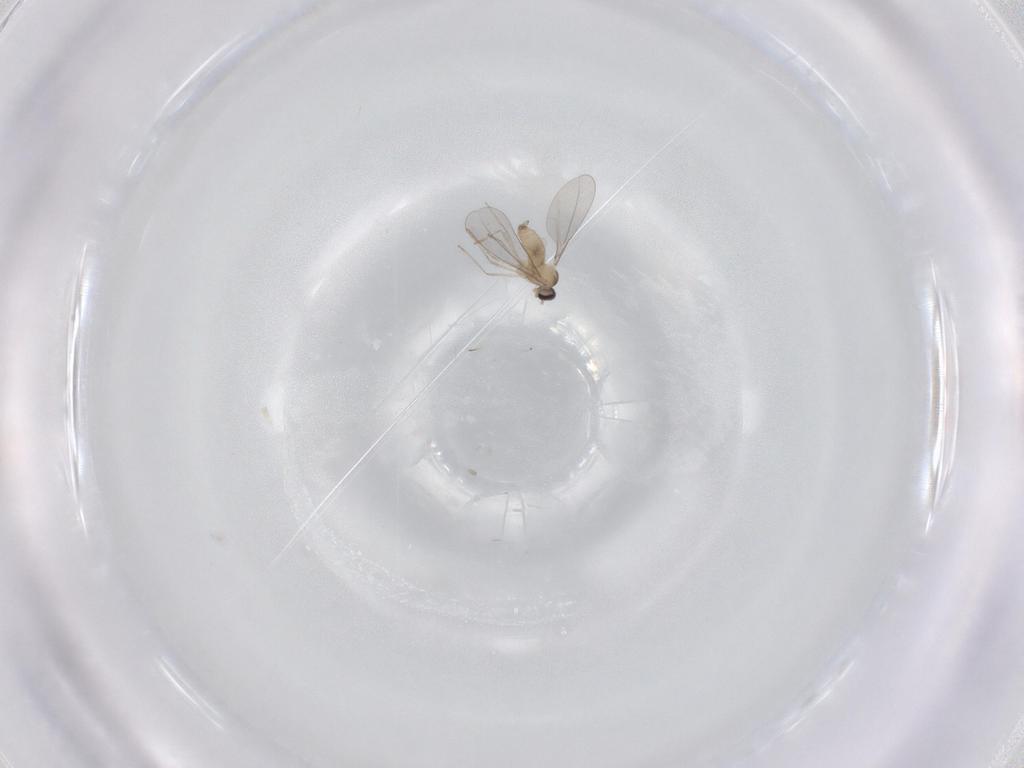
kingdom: Animalia
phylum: Arthropoda
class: Insecta
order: Diptera
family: Cecidomyiidae
